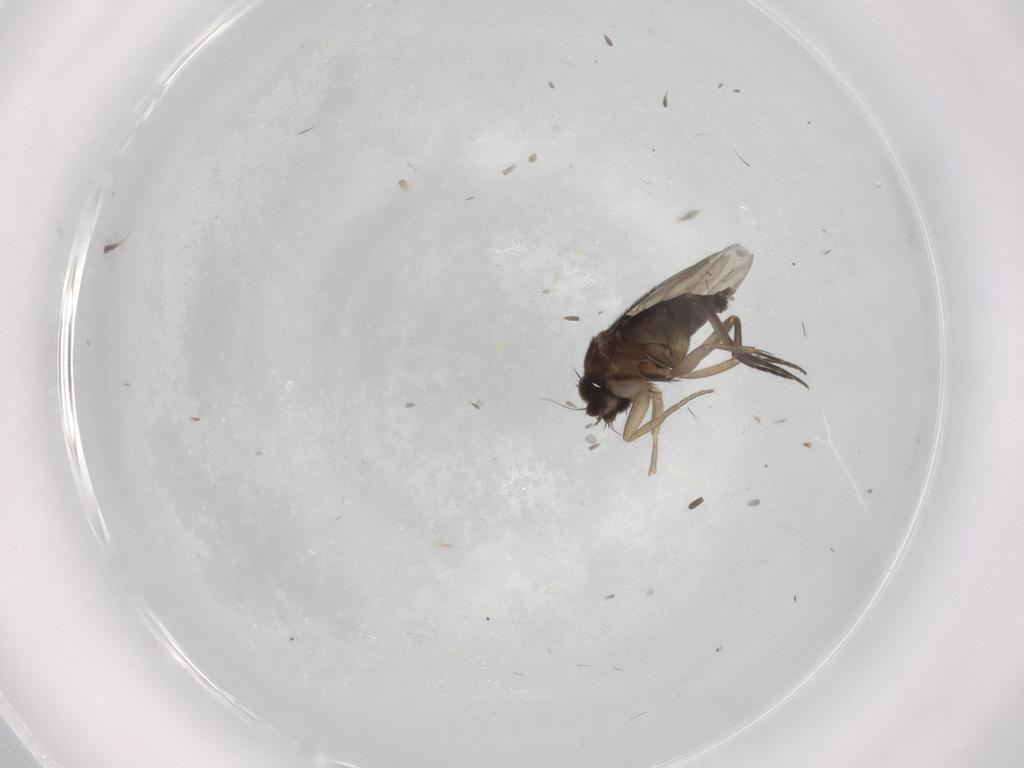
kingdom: Animalia
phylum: Arthropoda
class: Insecta
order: Diptera
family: Phoridae
